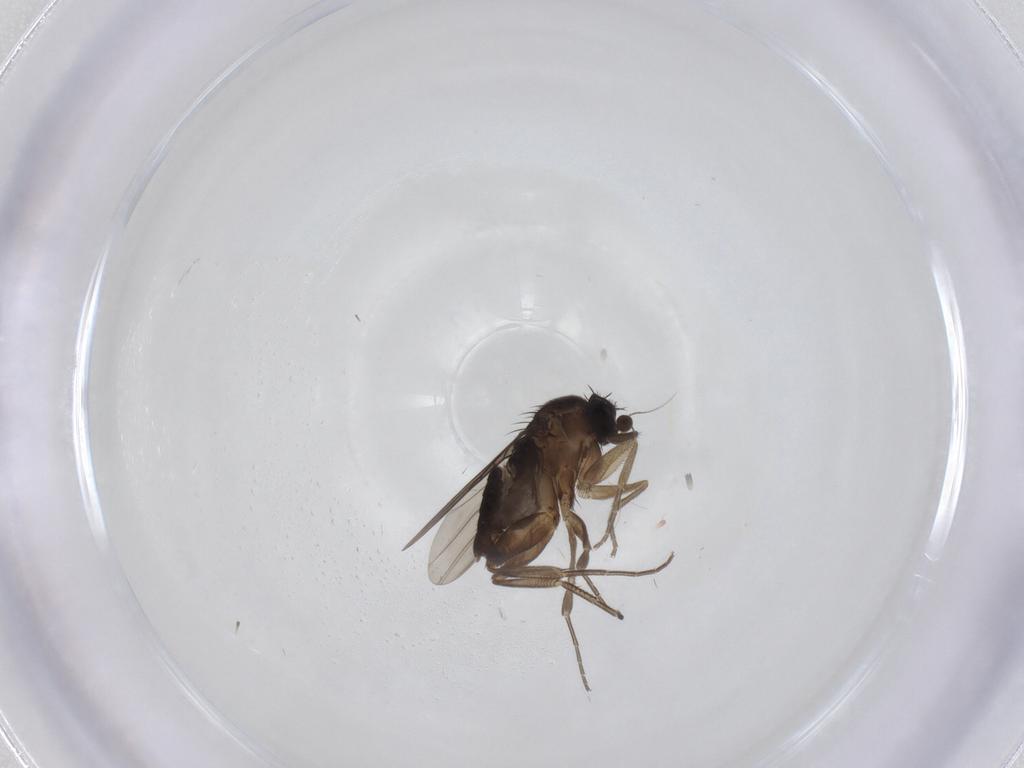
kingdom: Animalia
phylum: Arthropoda
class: Insecta
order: Diptera
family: Phoridae
